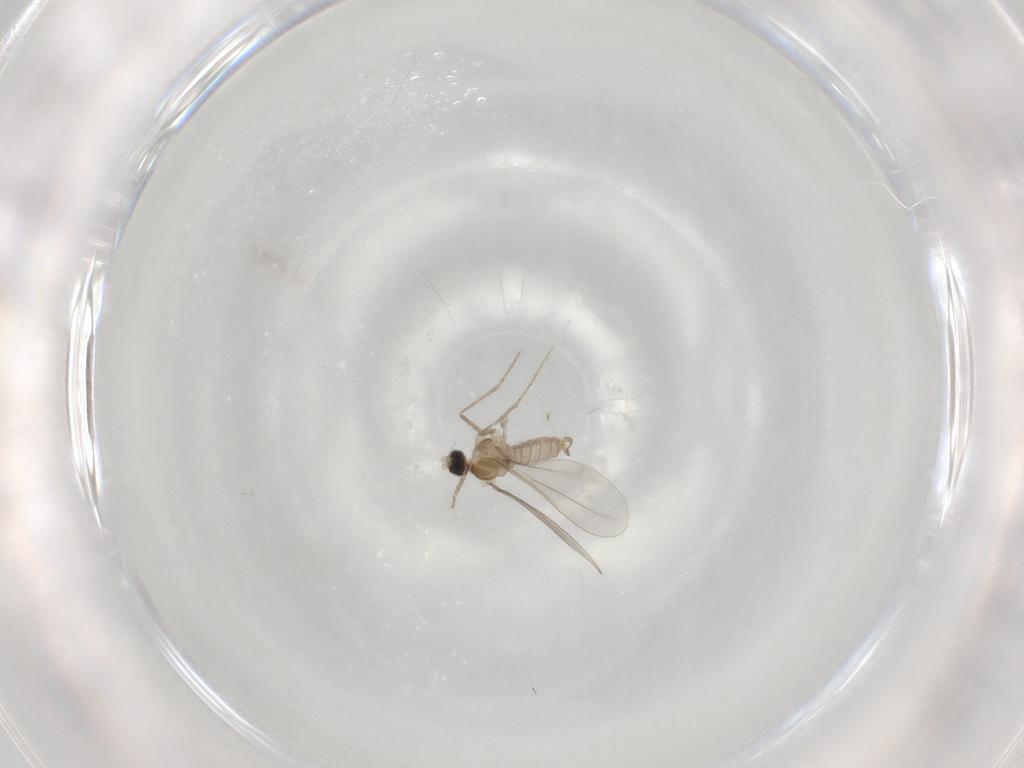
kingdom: Animalia
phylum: Arthropoda
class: Insecta
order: Diptera
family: Cecidomyiidae
